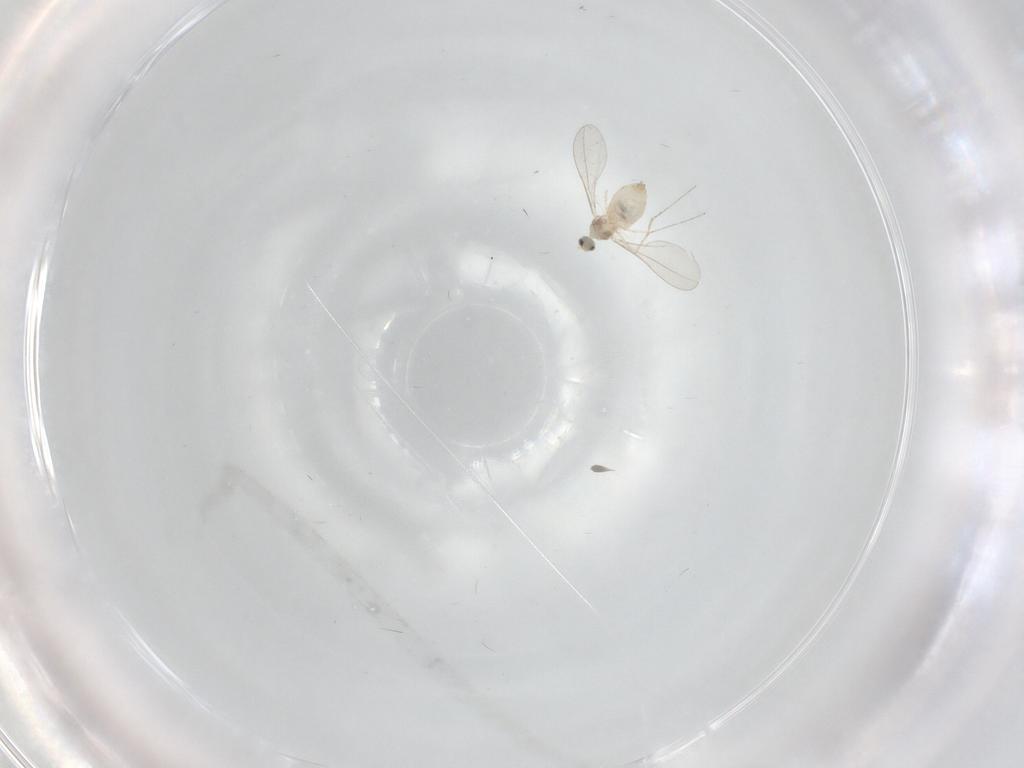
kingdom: Animalia
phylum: Arthropoda
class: Insecta
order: Diptera
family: Cecidomyiidae
